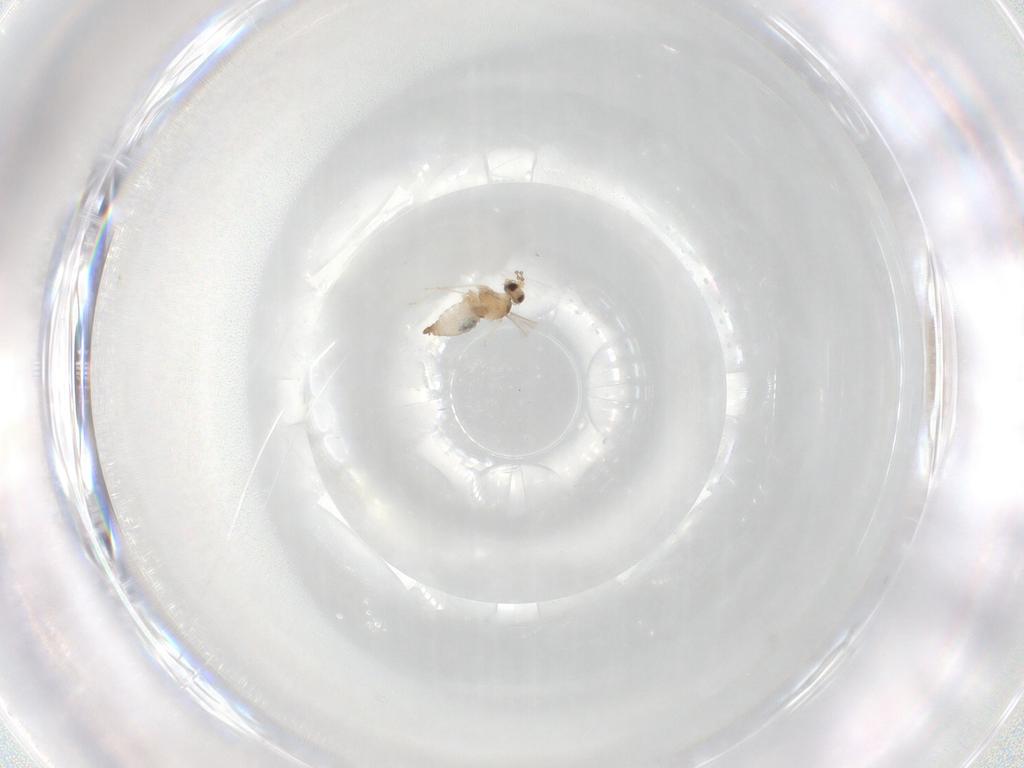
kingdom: Animalia
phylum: Arthropoda
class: Insecta
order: Diptera
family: Cecidomyiidae
